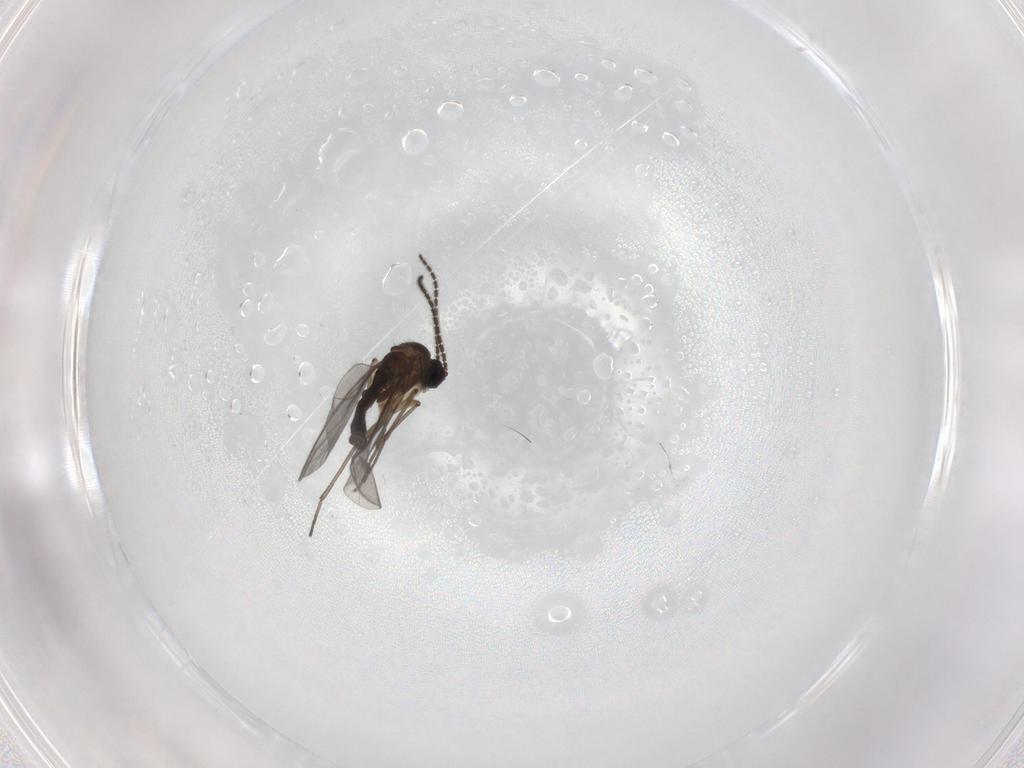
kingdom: Animalia
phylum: Arthropoda
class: Insecta
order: Diptera
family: Sciaridae
